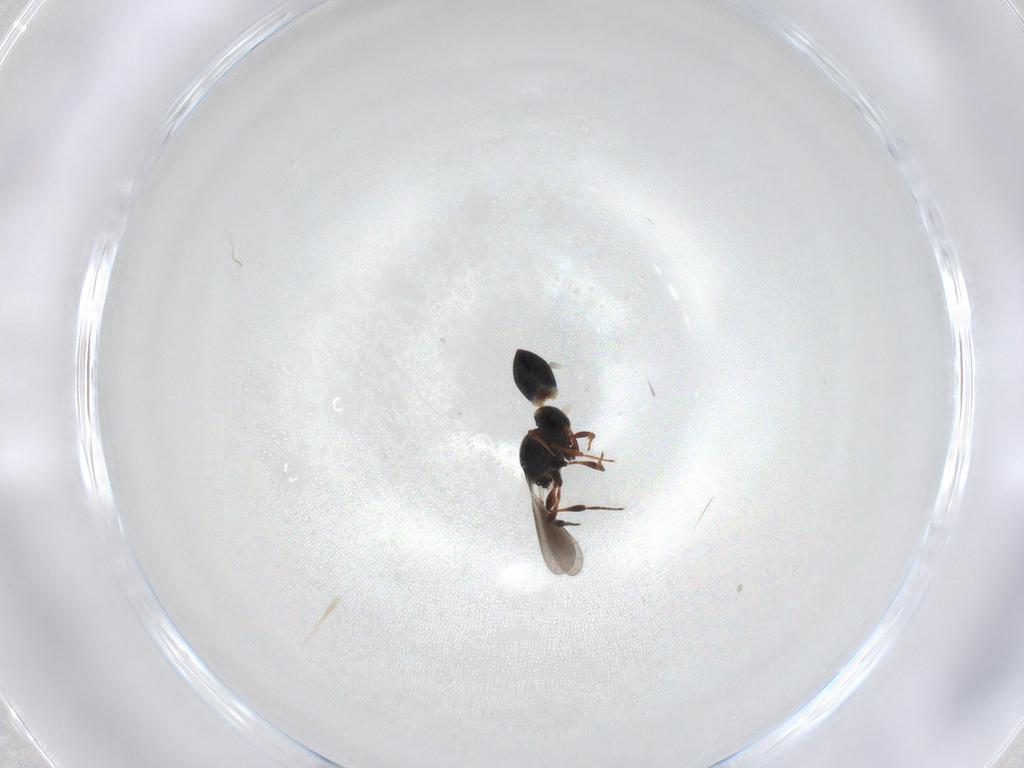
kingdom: Animalia
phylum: Arthropoda
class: Insecta
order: Hymenoptera
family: Platygastridae
